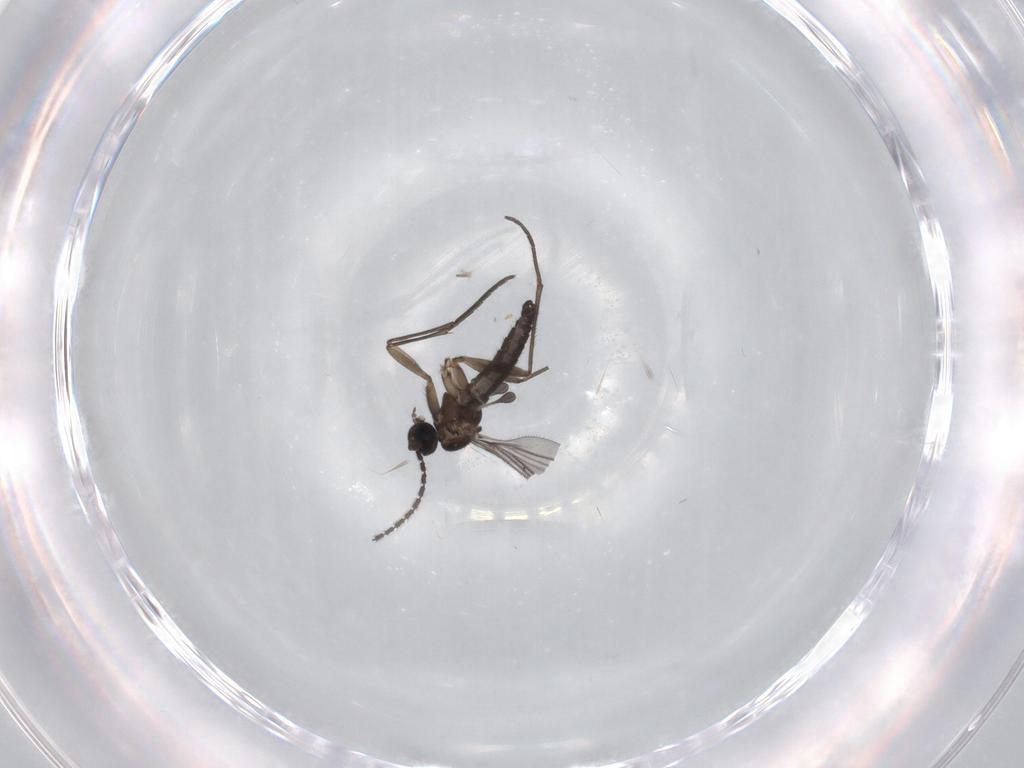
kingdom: Animalia
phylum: Arthropoda
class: Insecta
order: Diptera
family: Sciaridae
